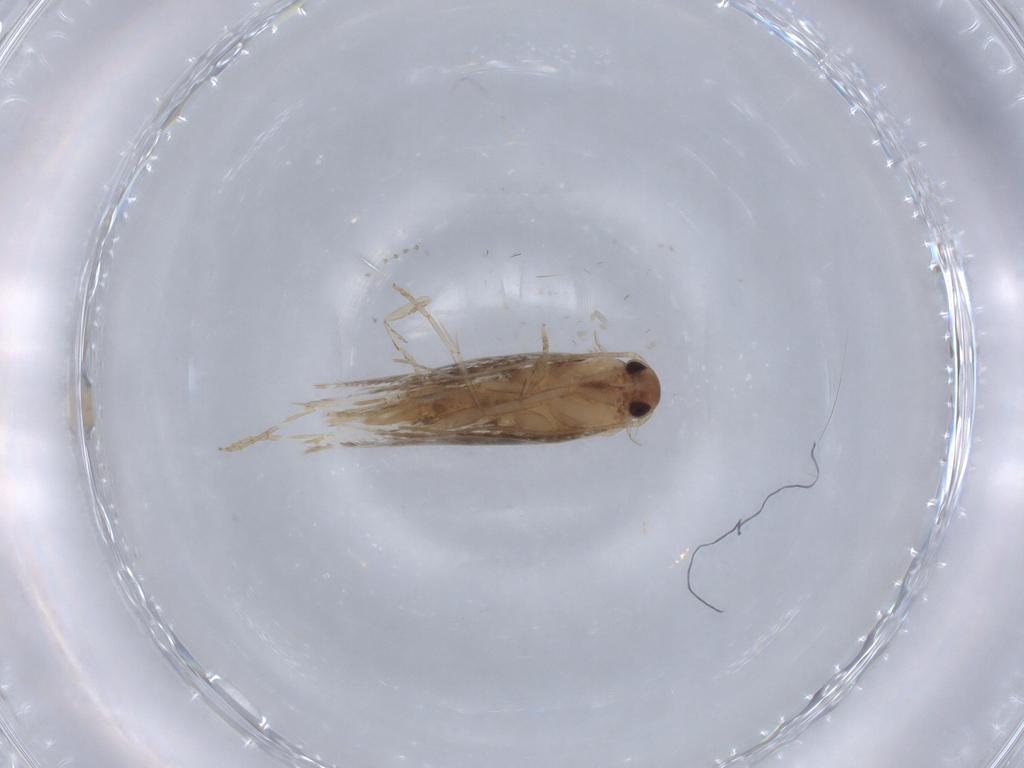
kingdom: Animalia
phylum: Arthropoda
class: Insecta
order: Lepidoptera
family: Elachistidae
